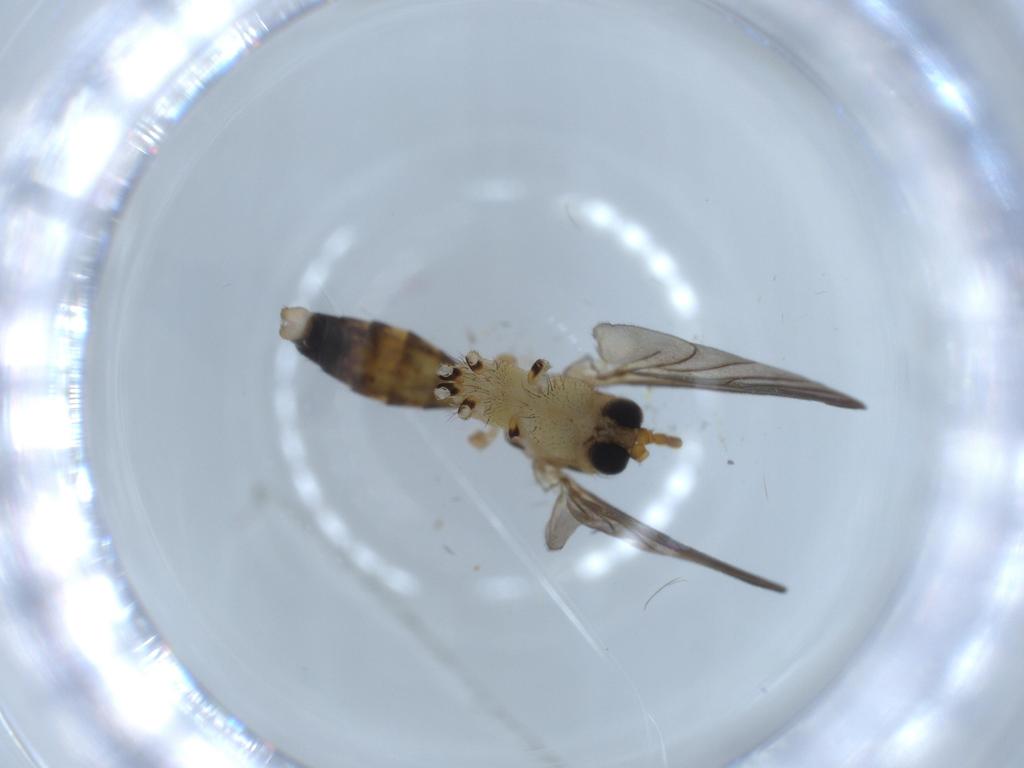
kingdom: Animalia
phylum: Arthropoda
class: Insecta
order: Diptera
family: Mycetophilidae
